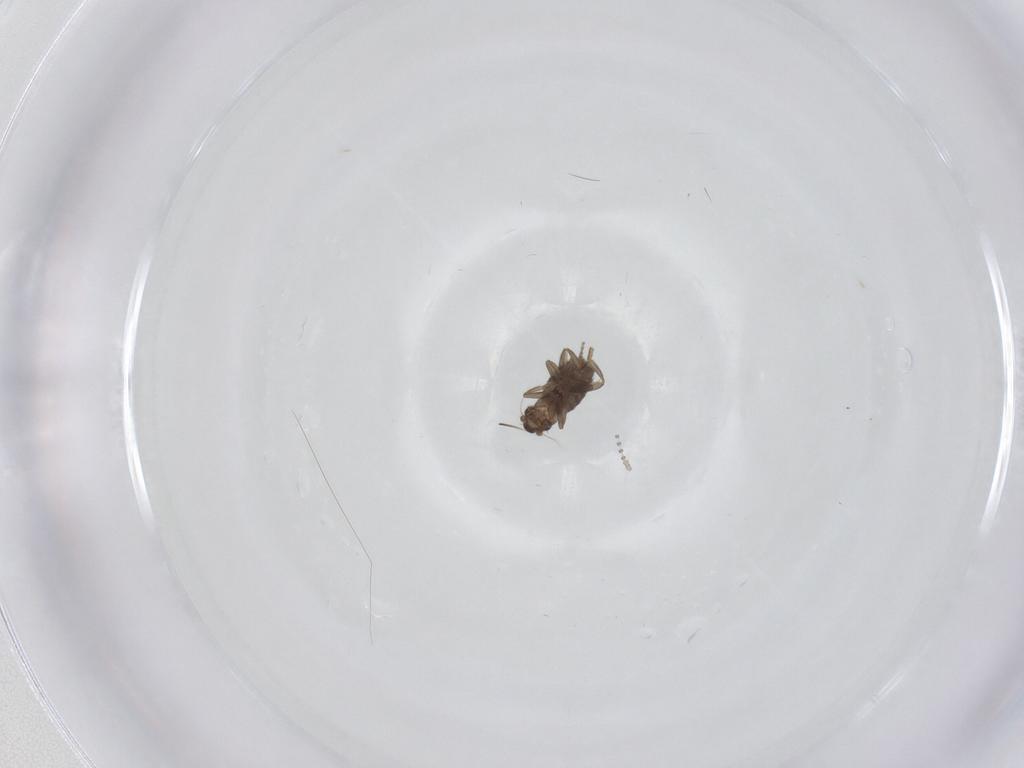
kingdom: Animalia
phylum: Arthropoda
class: Insecta
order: Diptera
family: Phoridae
